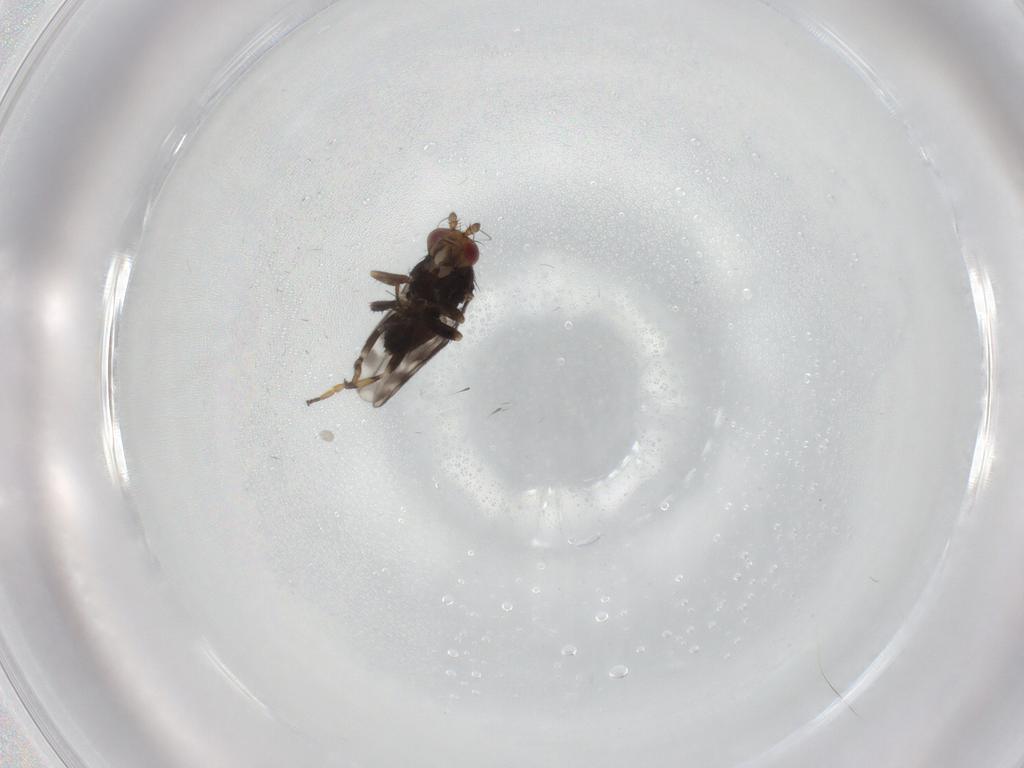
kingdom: Animalia
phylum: Arthropoda
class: Insecta
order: Diptera
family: Sphaeroceridae
